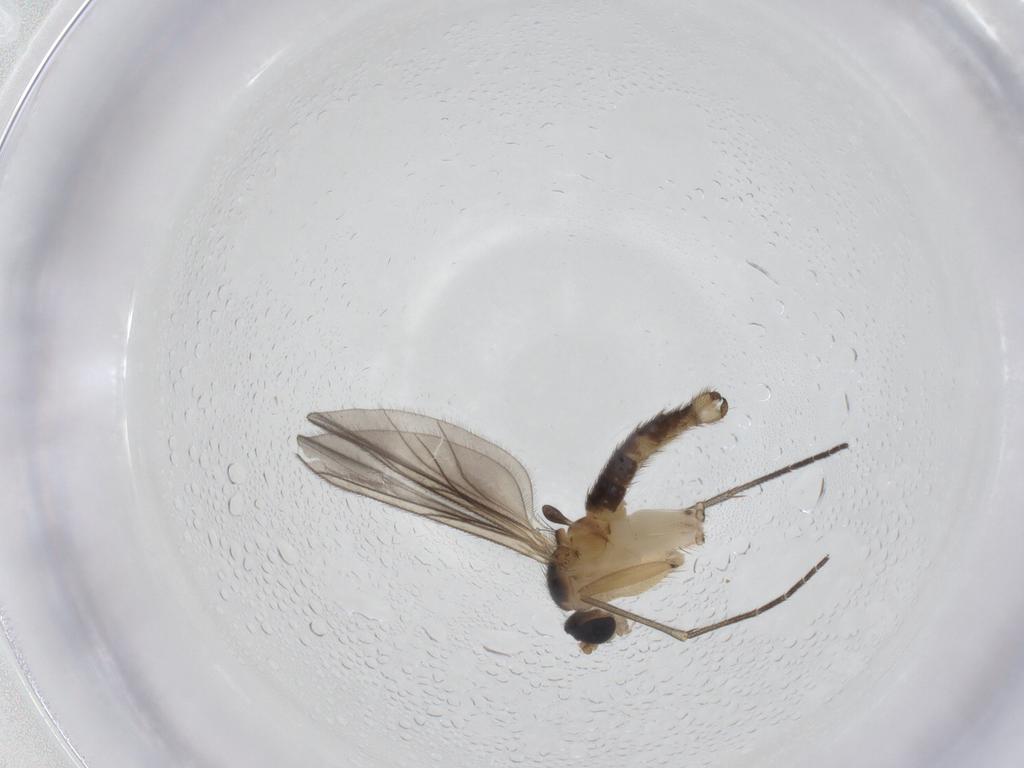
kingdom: Animalia
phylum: Arthropoda
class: Insecta
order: Diptera
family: Sciaridae
